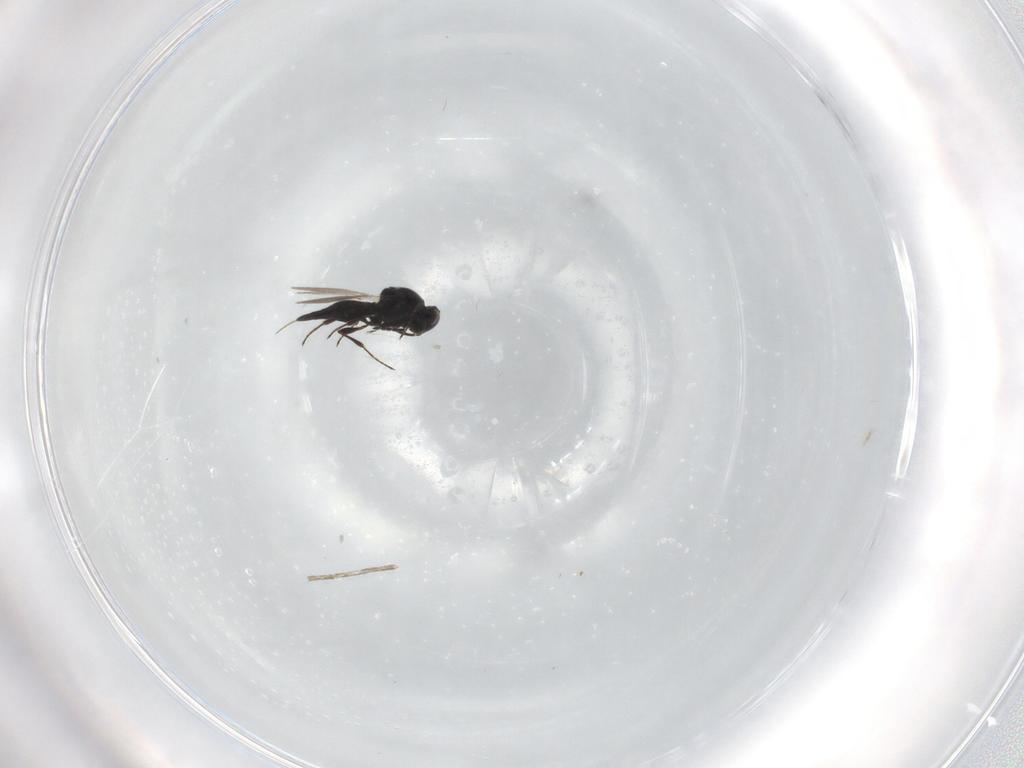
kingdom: Animalia
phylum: Arthropoda
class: Insecta
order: Hymenoptera
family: Platygastridae
